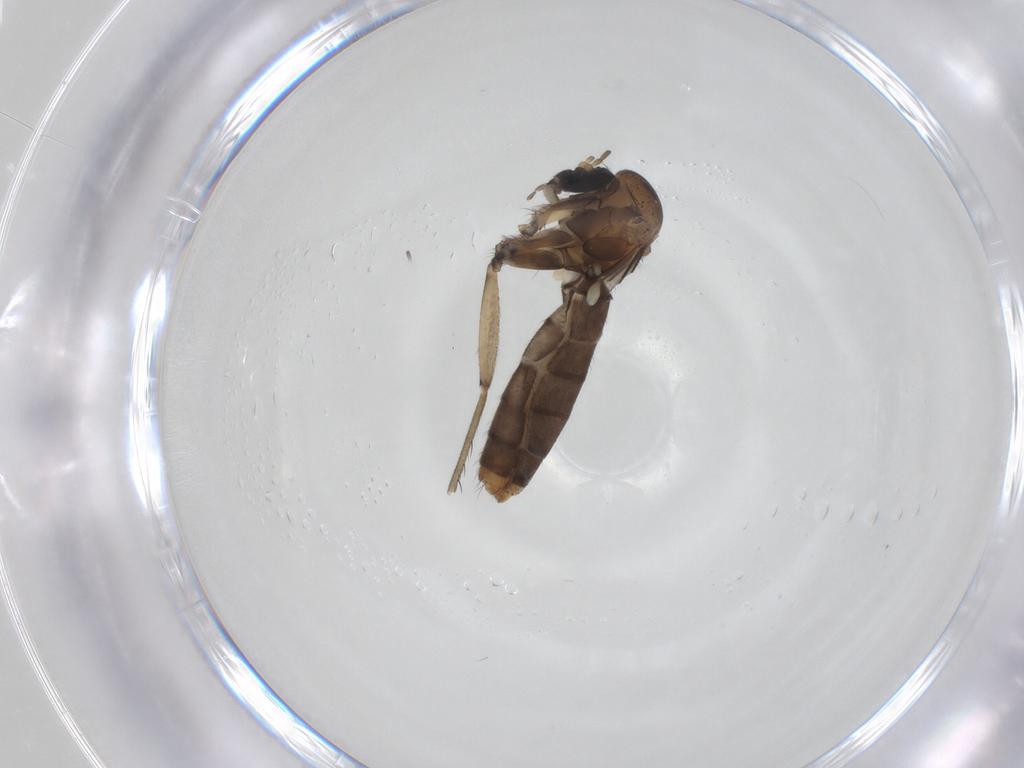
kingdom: Animalia
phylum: Arthropoda
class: Insecta
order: Diptera
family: Mycetophilidae
